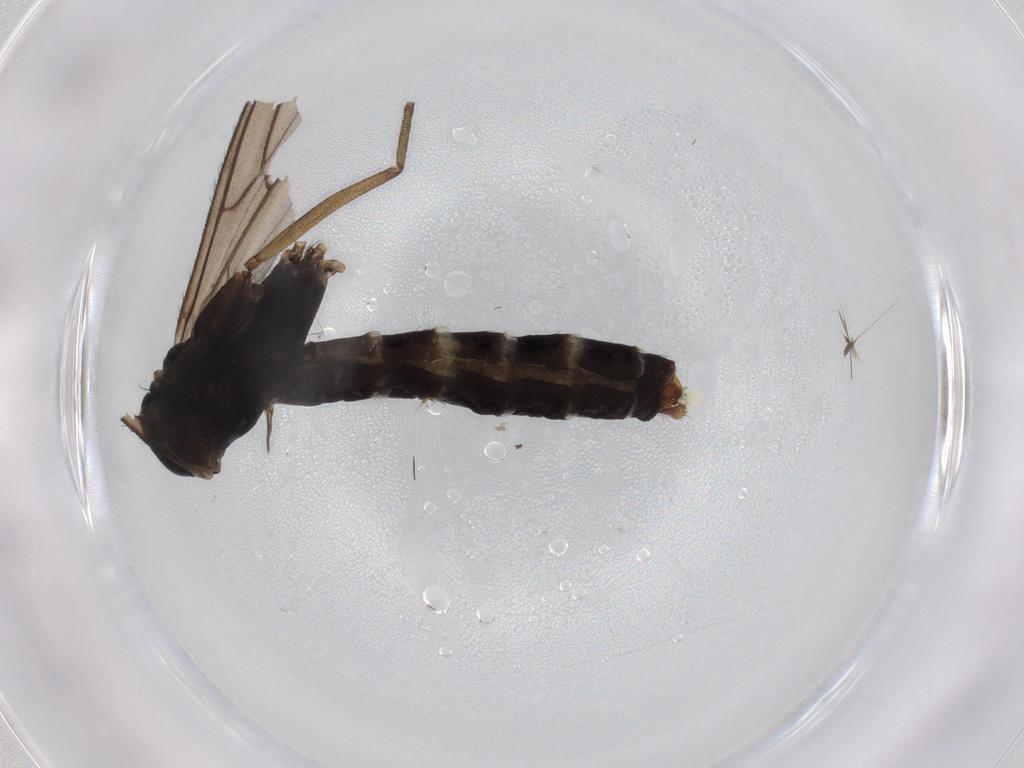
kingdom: Animalia
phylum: Arthropoda
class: Insecta
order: Diptera
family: Ditomyiidae
